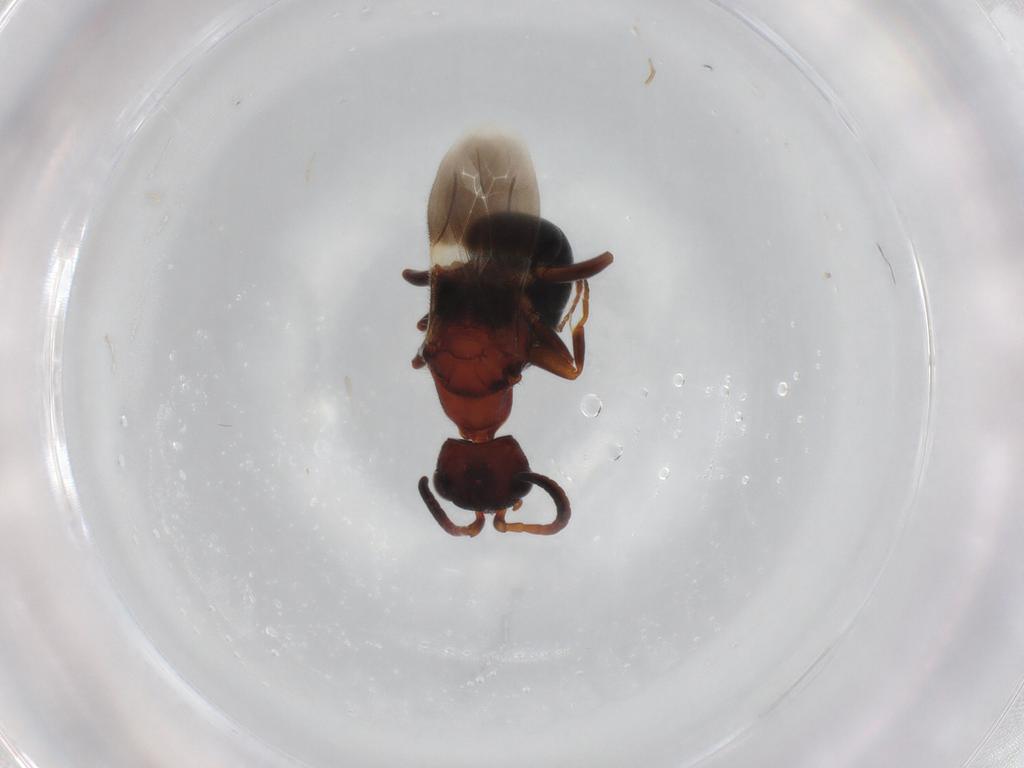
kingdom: Animalia
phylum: Arthropoda
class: Insecta
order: Hymenoptera
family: Bethylidae
